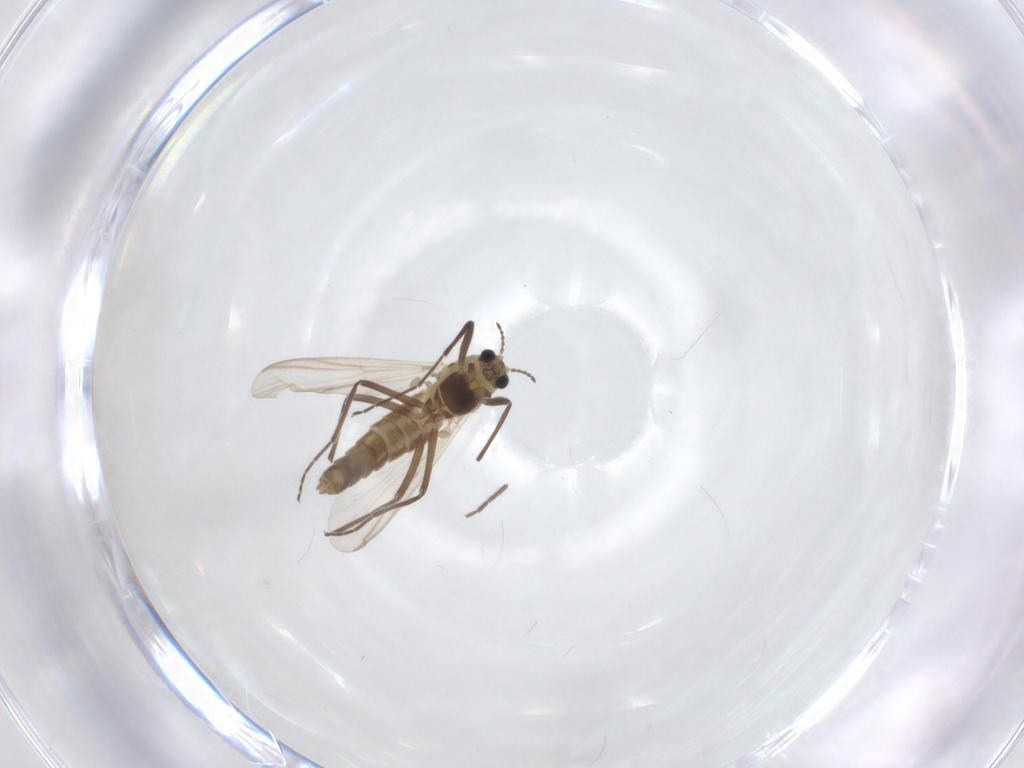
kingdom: Animalia
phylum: Arthropoda
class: Insecta
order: Diptera
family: Chironomidae
